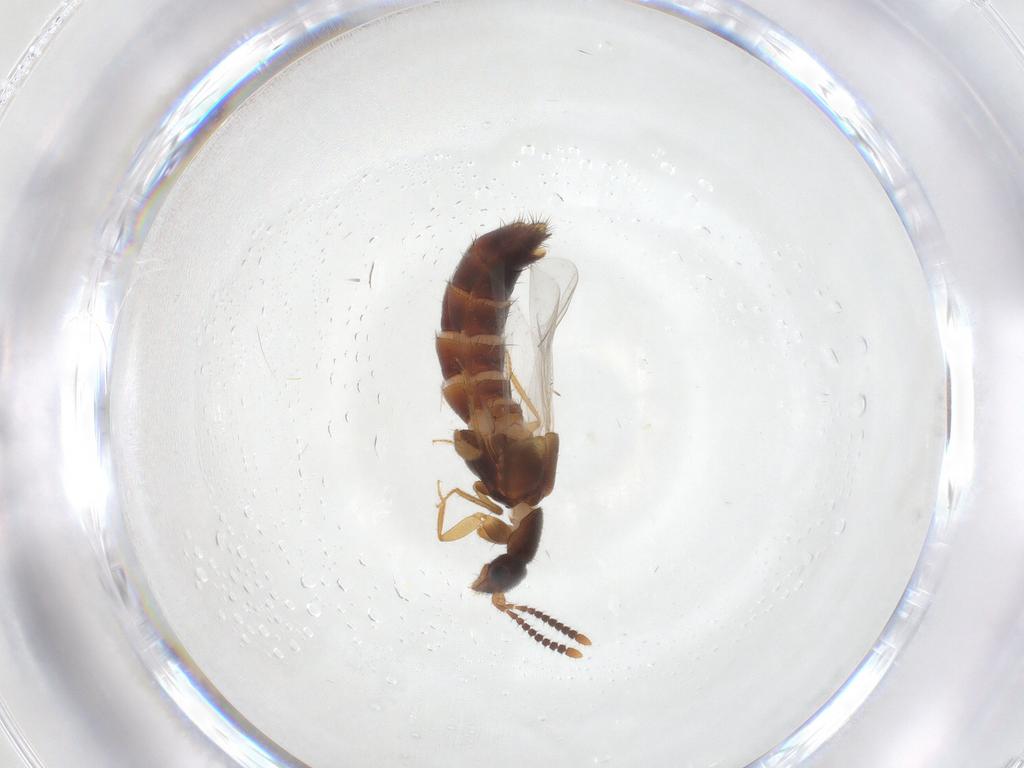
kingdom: Animalia
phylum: Arthropoda
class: Insecta
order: Coleoptera
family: Staphylinidae
